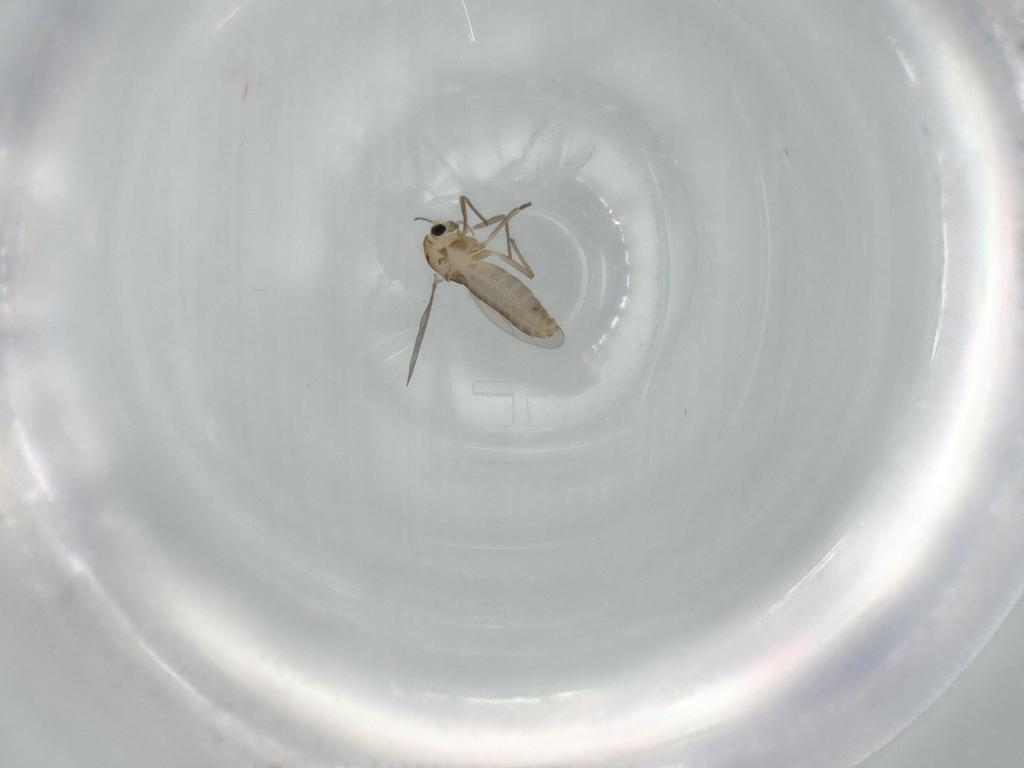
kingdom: Animalia
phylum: Arthropoda
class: Insecta
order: Diptera
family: Chironomidae
